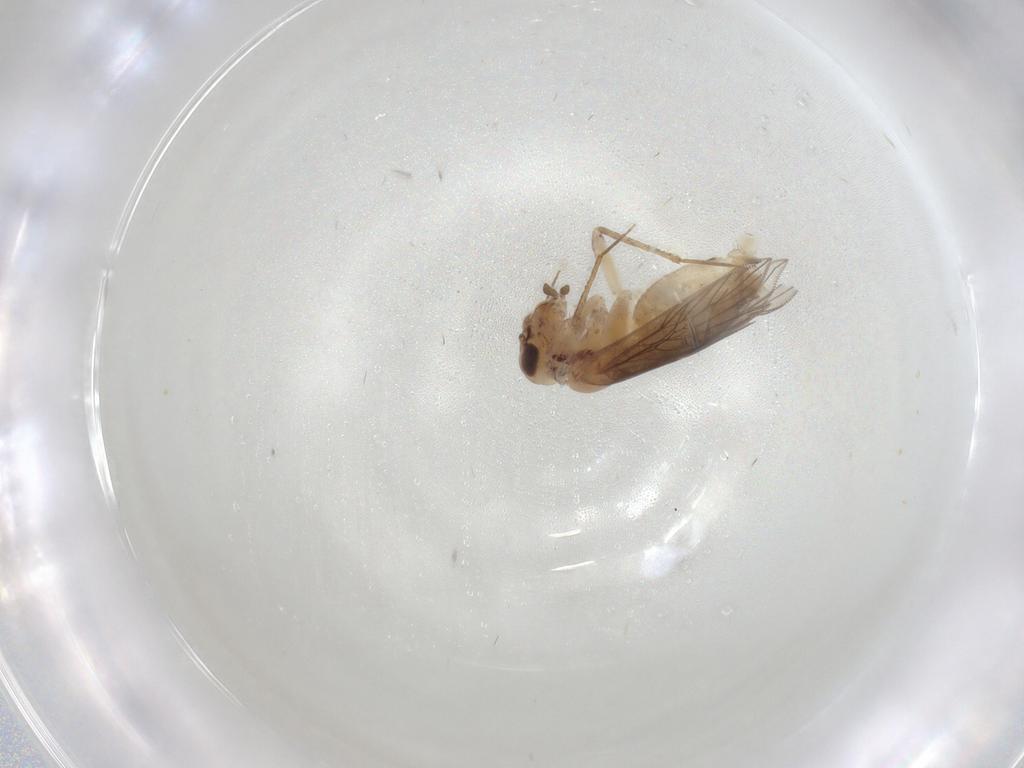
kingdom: Animalia
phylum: Arthropoda
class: Insecta
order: Psocodea
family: Lepidopsocidae
